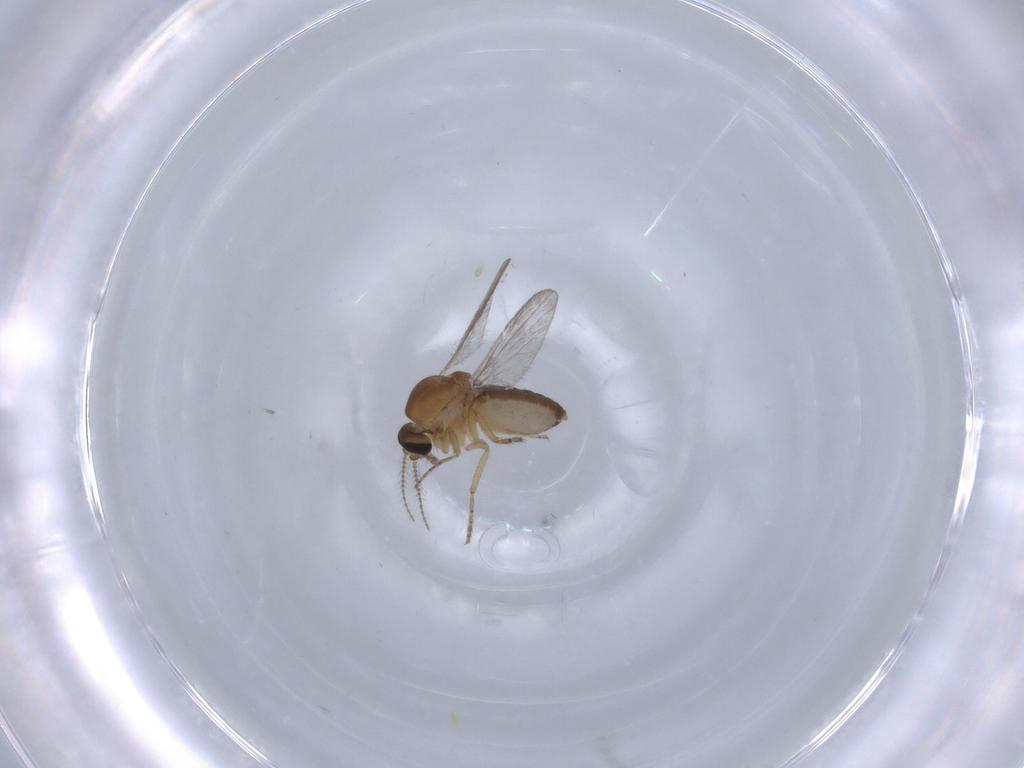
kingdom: Animalia
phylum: Arthropoda
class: Insecta
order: Diptera
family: Ceratopogonidae
